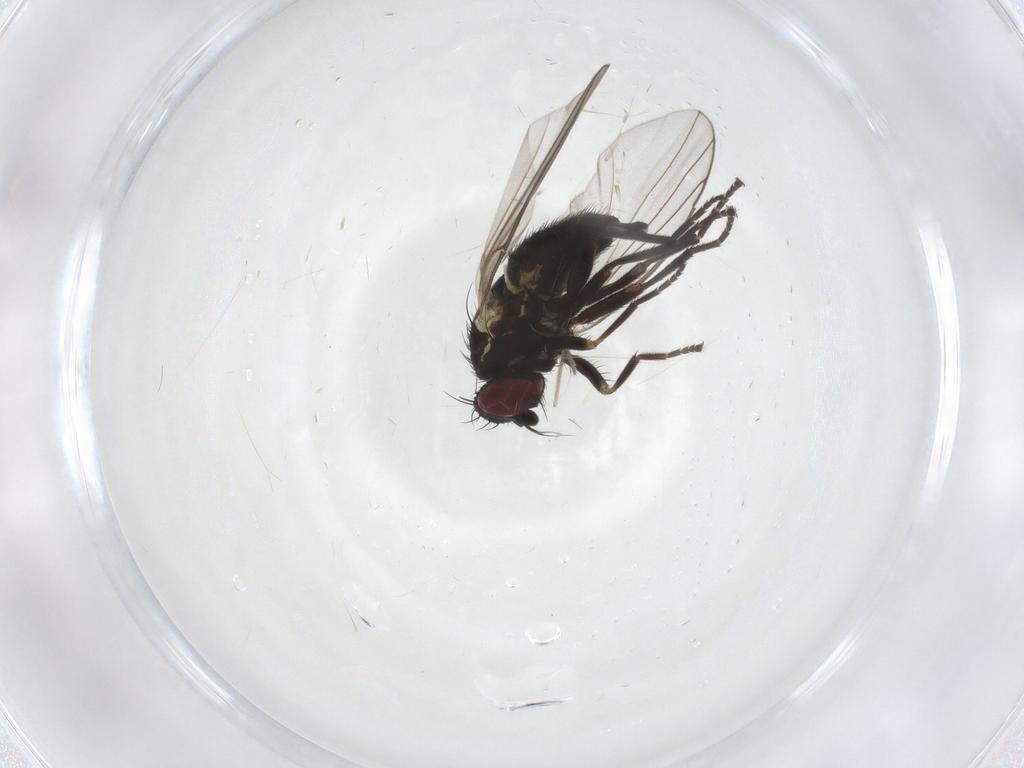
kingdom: Animalia
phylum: Arthropoda
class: Insecta
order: Diptera
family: Agromyzidae
